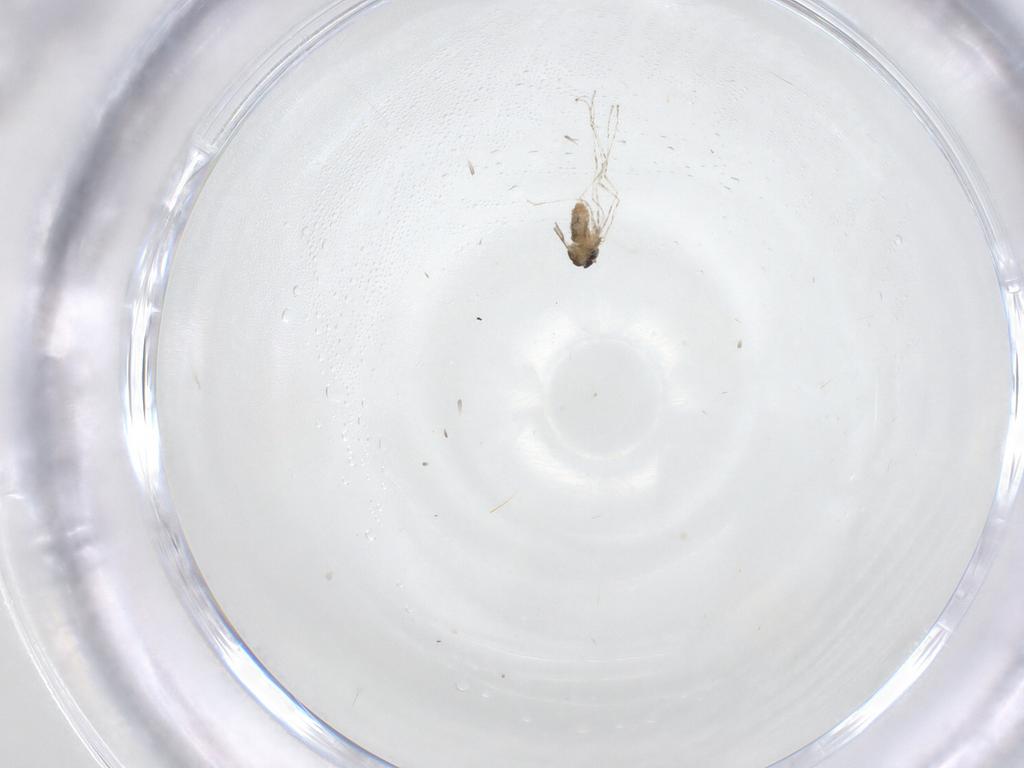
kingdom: Animalia
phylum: Arthropoda
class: Insecta
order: Diptera
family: Cecidomyiidae
